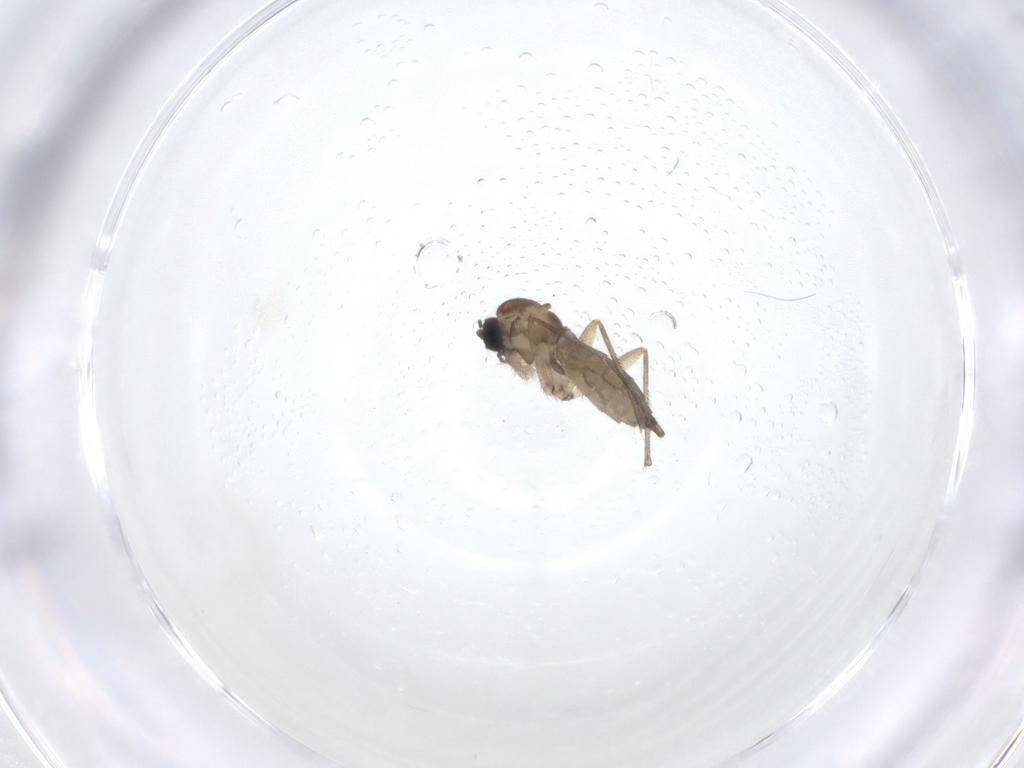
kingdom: Animalia
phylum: Arthropoda
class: Insecta
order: Diptera
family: Sciaridae
